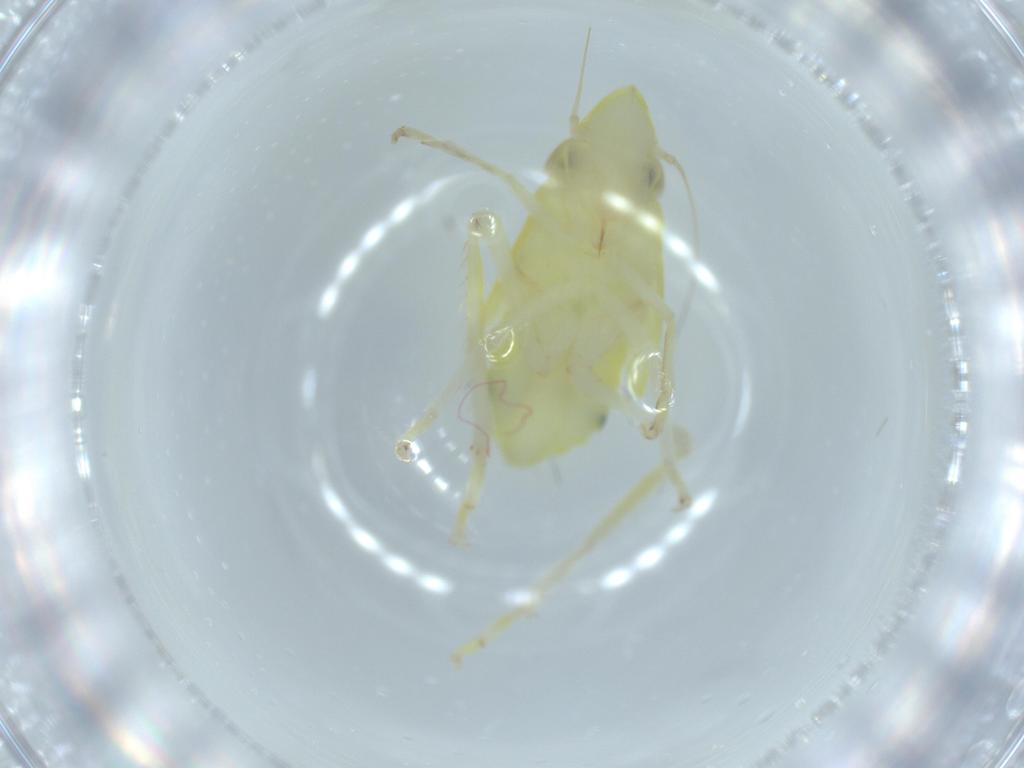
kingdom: Animalia
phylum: Arthropoda
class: Insecta
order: Hemiptera
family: Cicadellidae
